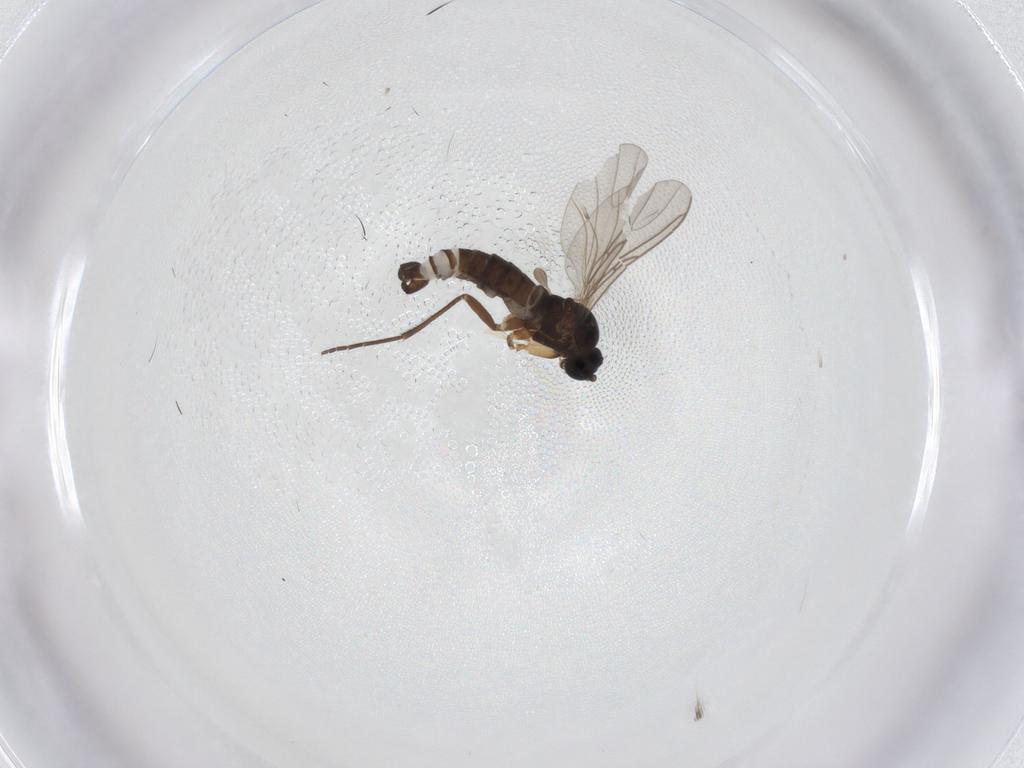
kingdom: Animalia
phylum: Arthropoda
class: Insecta
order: Diptera
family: Sciaridae
